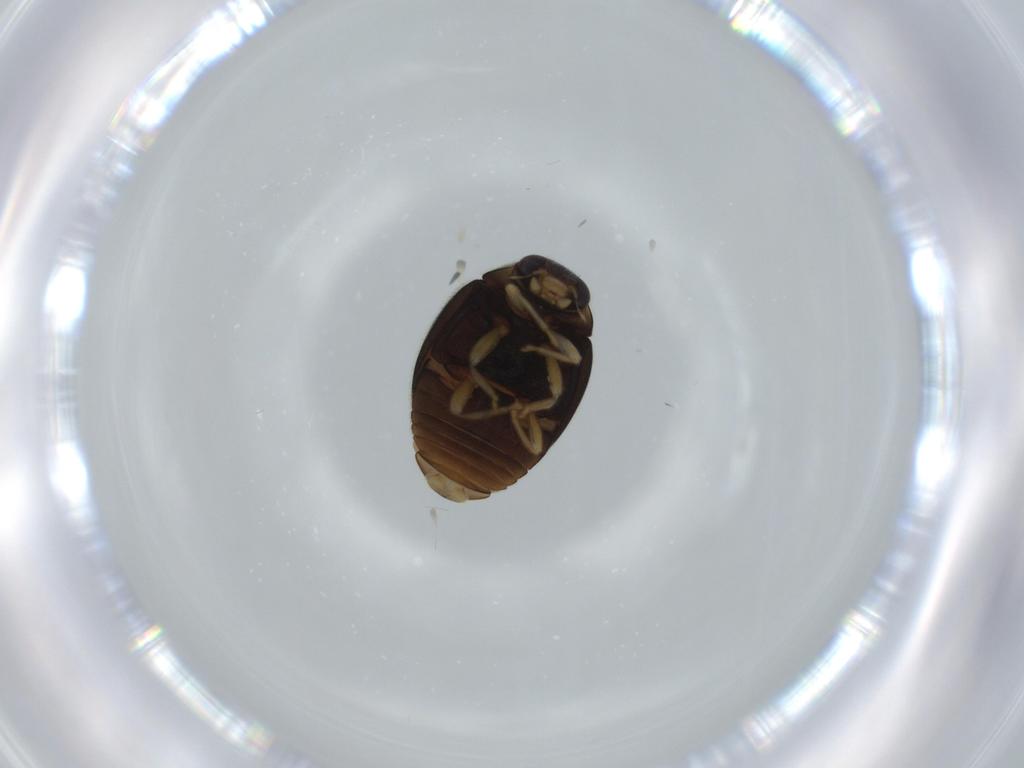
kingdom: Animalia
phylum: Arthropoda
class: Insecta
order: Coleoptera
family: Coccinellidae
